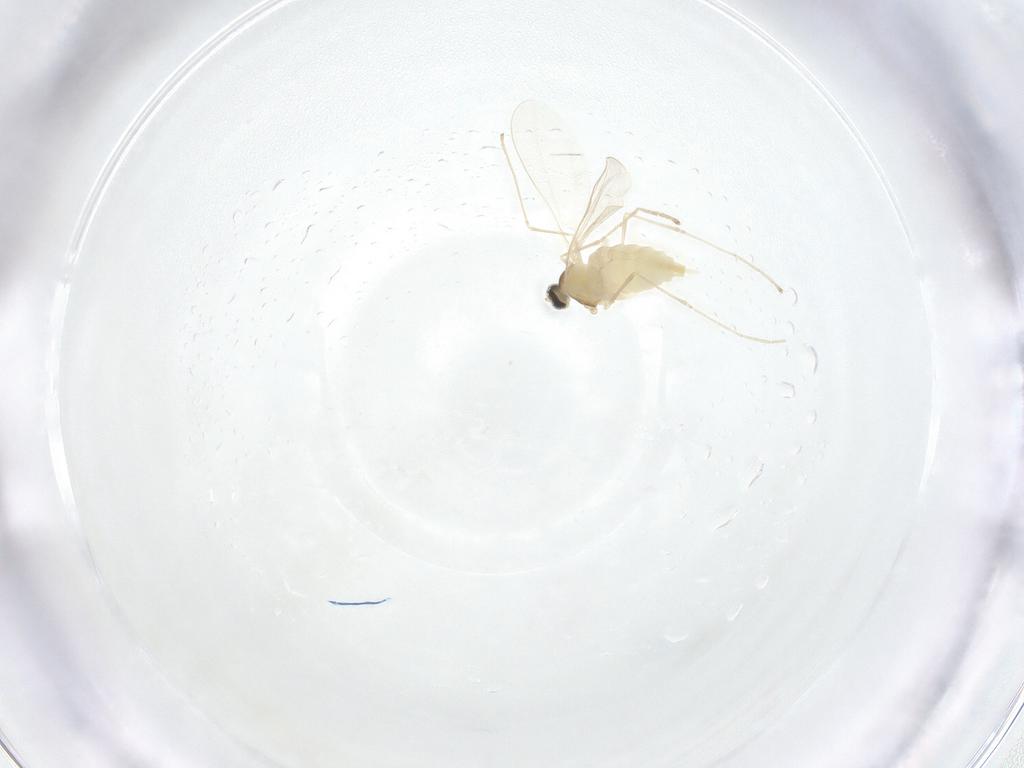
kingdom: Animalia
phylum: Arthropoda
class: Insecta
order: Diptera
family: Cecidomyiidae
